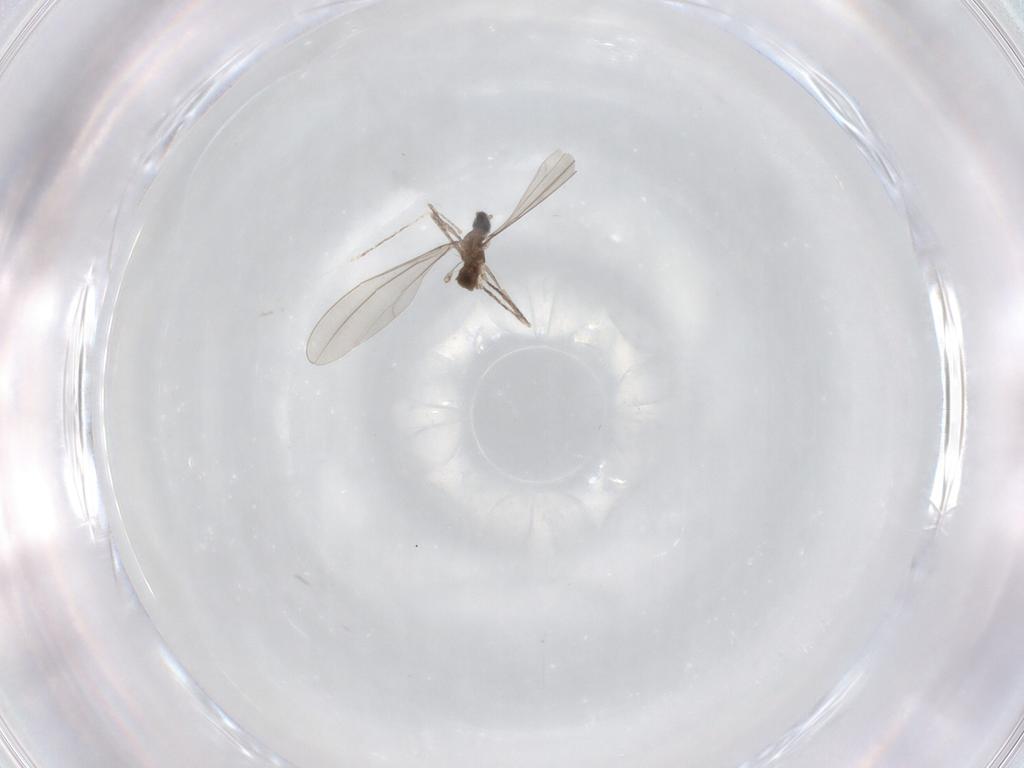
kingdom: Animalia
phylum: Arthropoda
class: Insecta
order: Diptera
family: Cecidomyiidae
